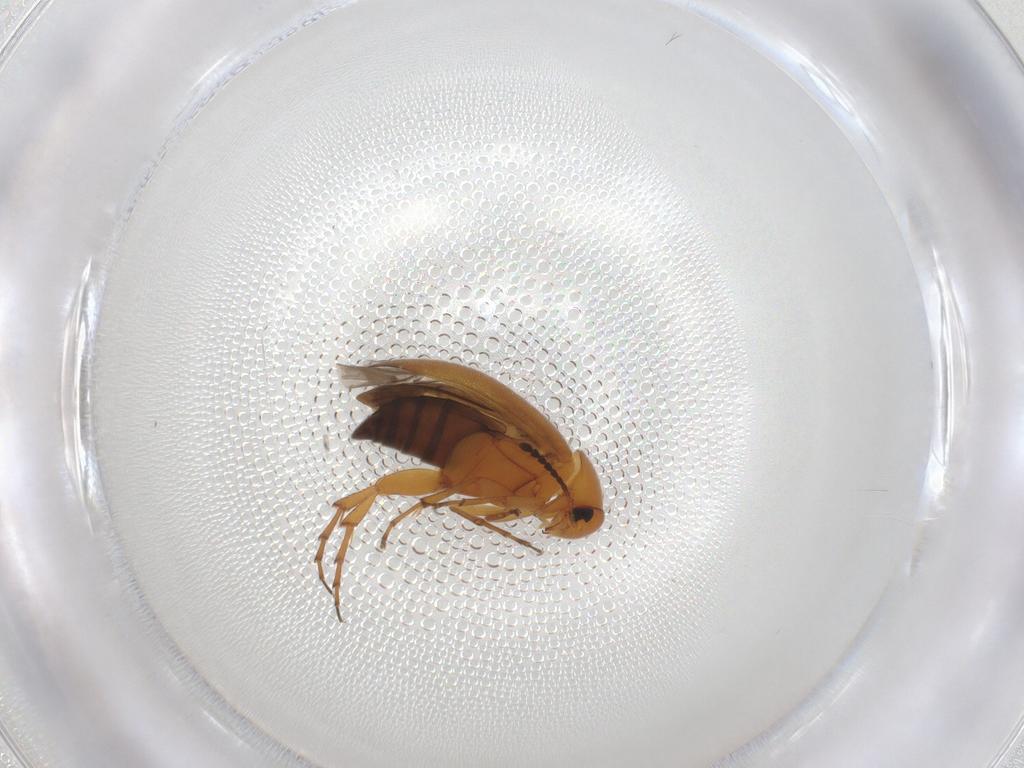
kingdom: Animalia
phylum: Arthropoda
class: Insecta
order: Coleoptera
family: Scraptiidae
